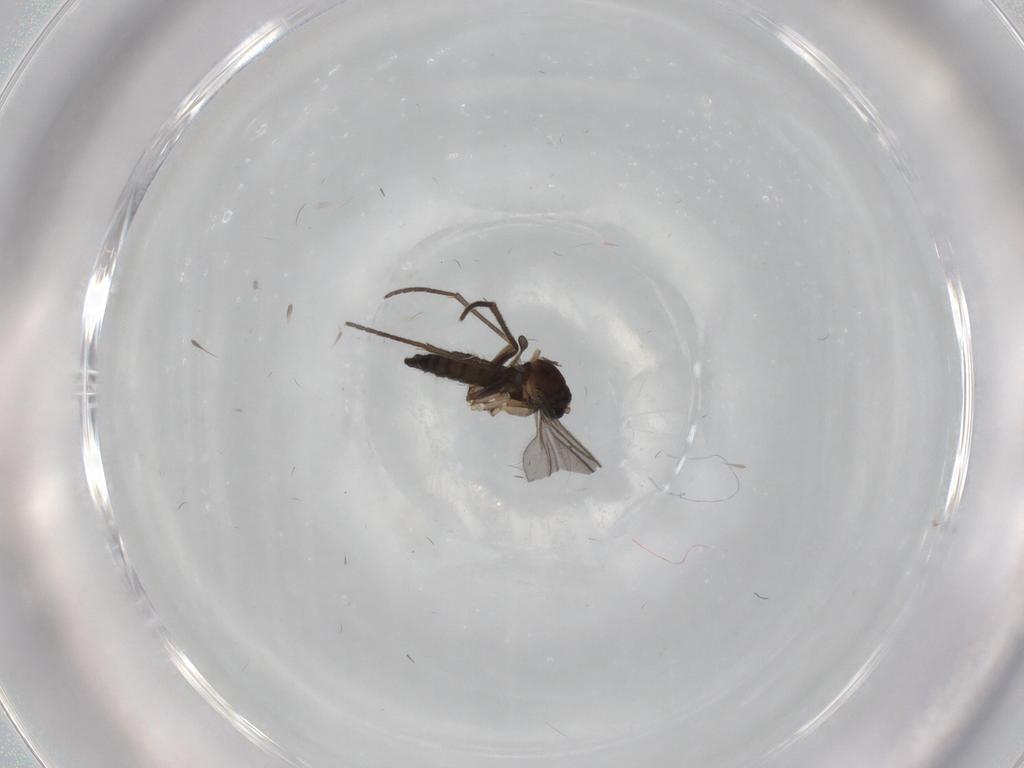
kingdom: Animalia
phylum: Arthropoda
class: Insecta
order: Diptera
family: Sciaridae
